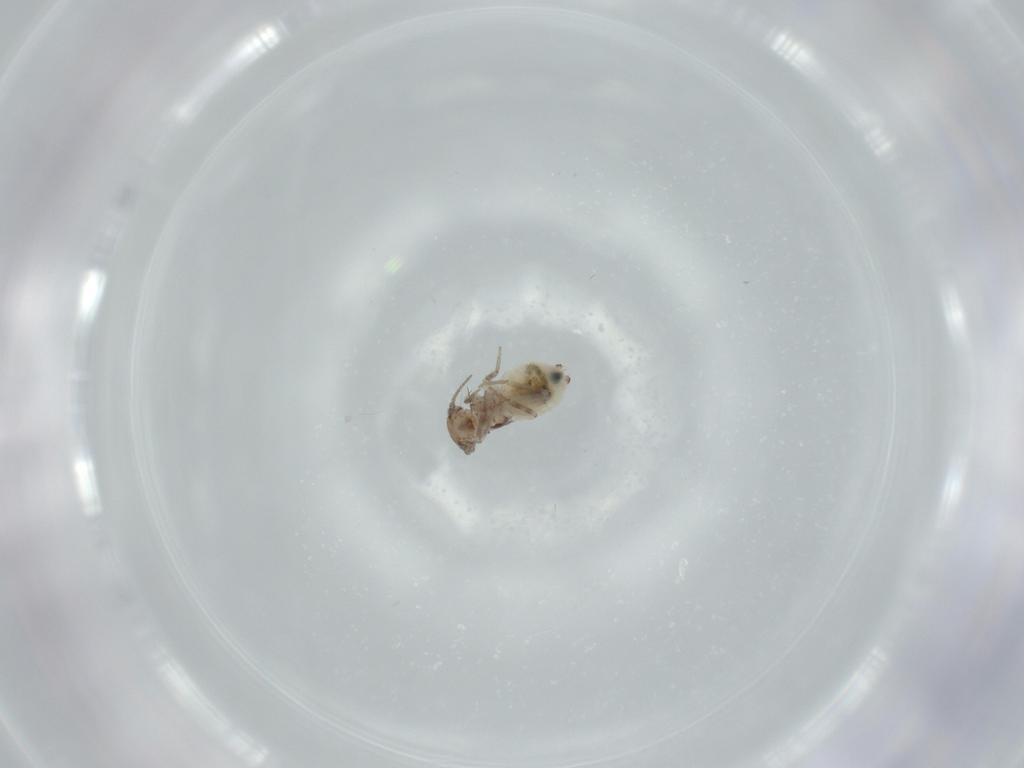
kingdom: Animalia
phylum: Arthropoda
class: Insecta
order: Psocodea
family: Lepidopsocidae
